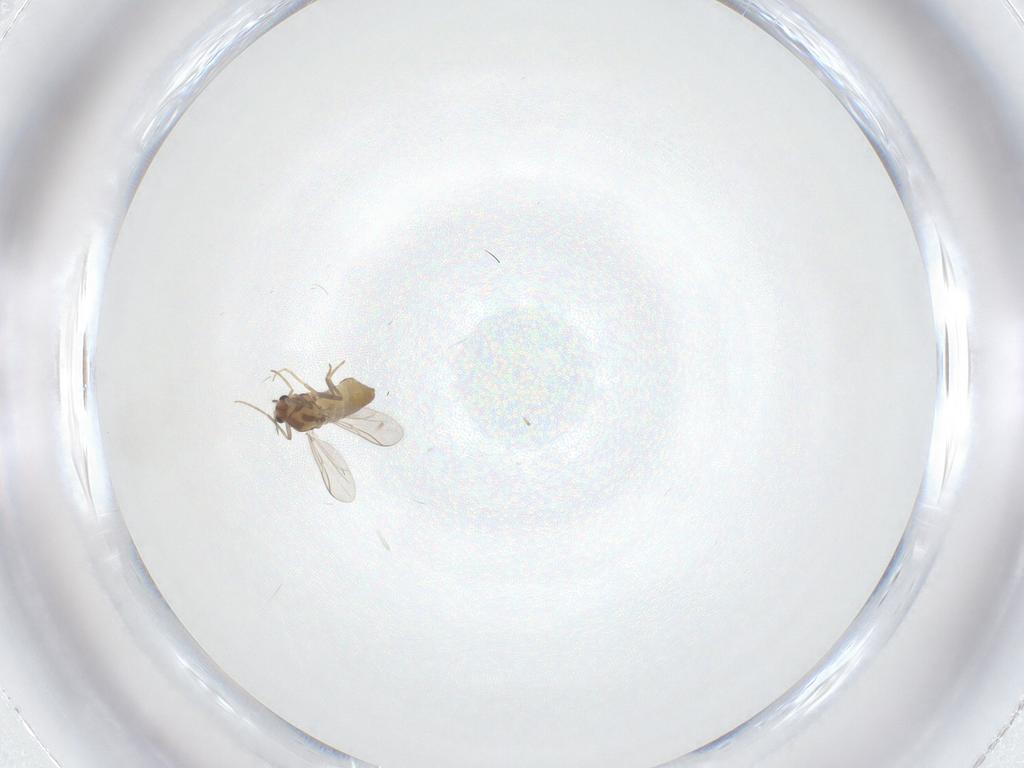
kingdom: Animalia
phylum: Arthropoda
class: Insecta
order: Diptera
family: Chironomidae
